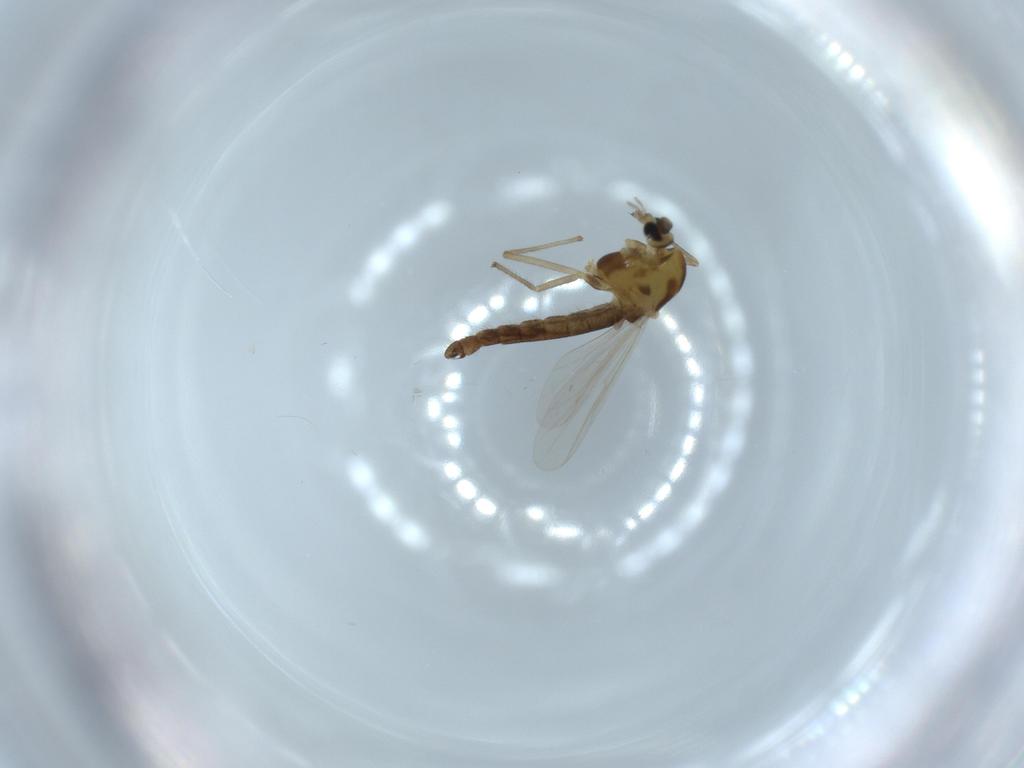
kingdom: Animalia
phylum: Arthropoda
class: Insecta
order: Diptera
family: Chironomidae
